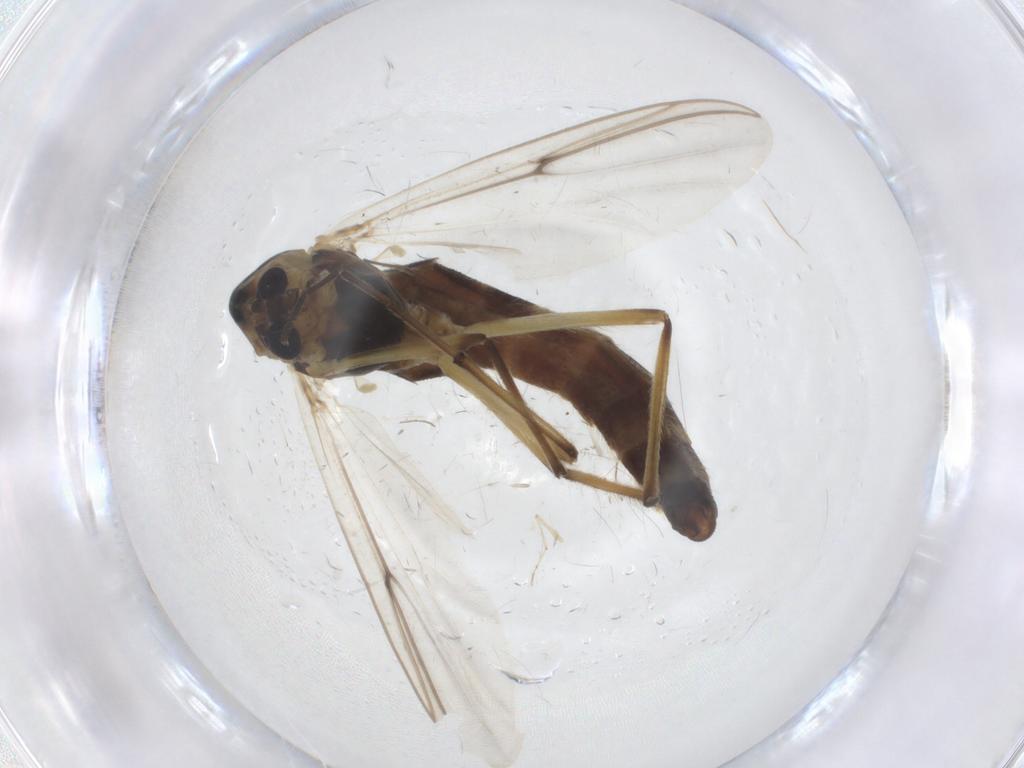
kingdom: Animalia
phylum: Arthropoda
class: Insecta
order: Diptera
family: Chironomidae
